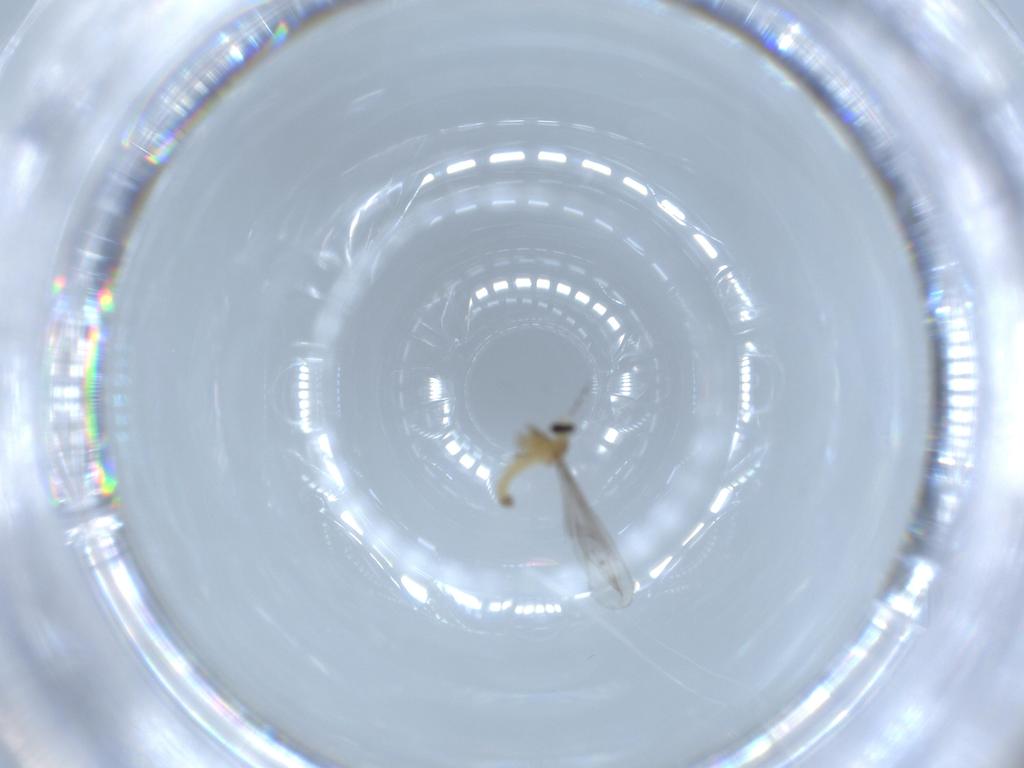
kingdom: Animalia
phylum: Arthropoda
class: Insecta
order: Diptera
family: Cecidomyiidae
